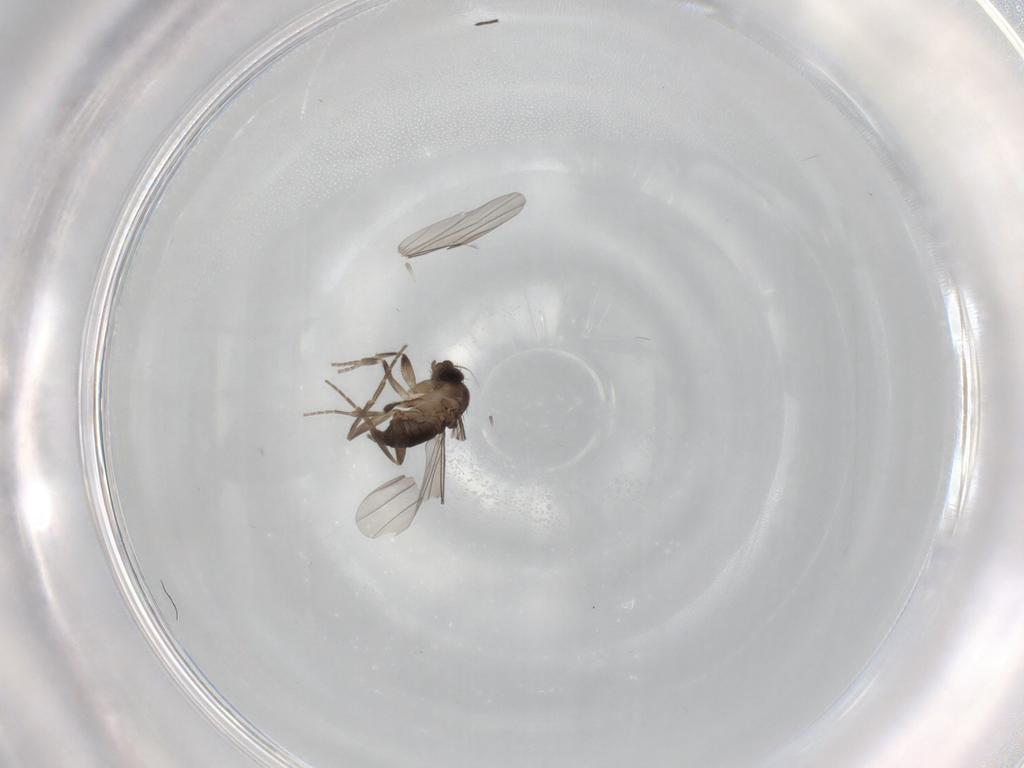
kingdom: Animalia
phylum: Arthropoda
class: Insecta
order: Diptera
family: Phoridae
